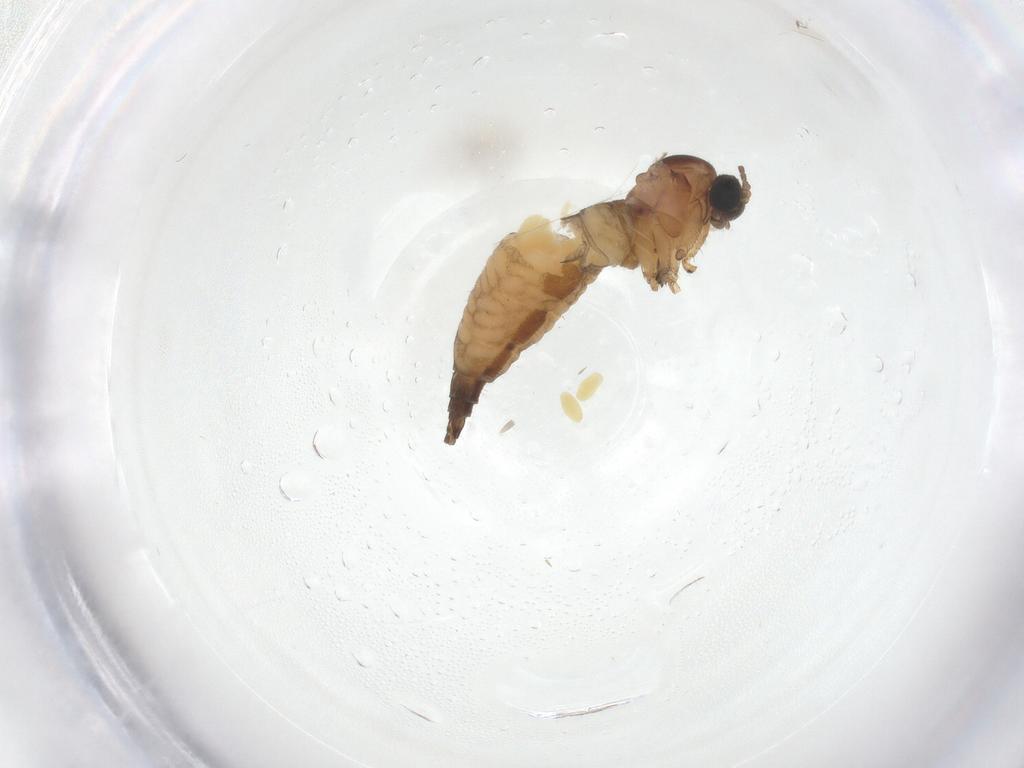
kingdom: Animalia
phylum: Arthropoda
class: Insecta
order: Diptera
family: Sciaridae
